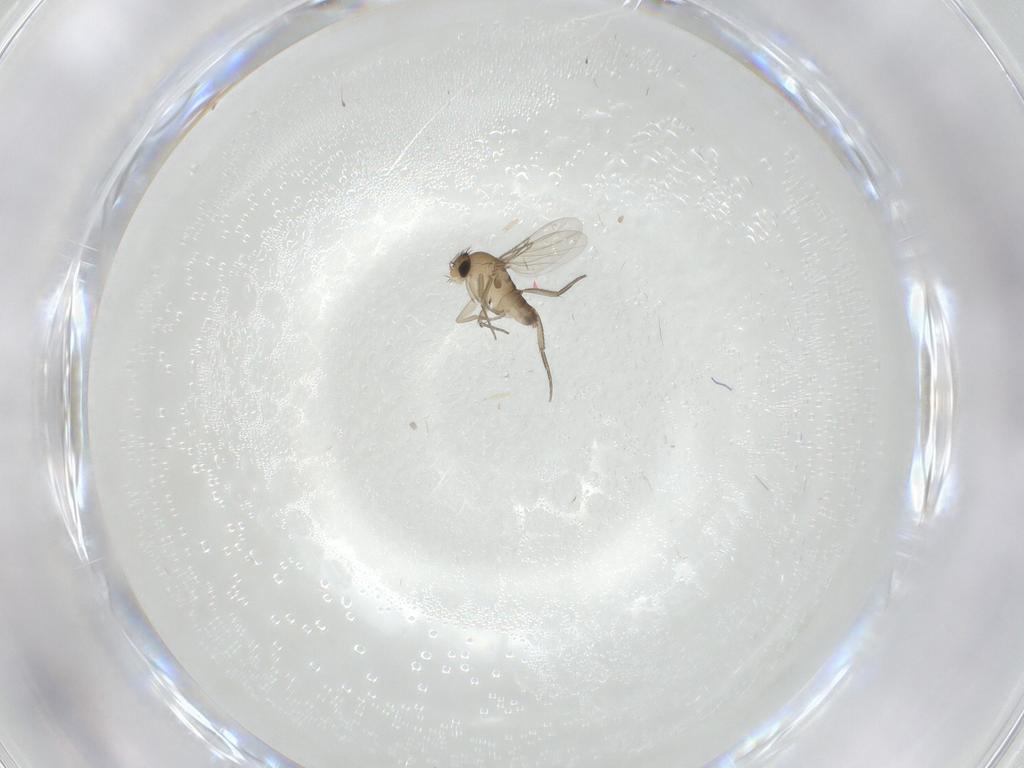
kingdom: Animalia
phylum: Arthropoda
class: Insecta
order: Diptera
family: Phoridae
